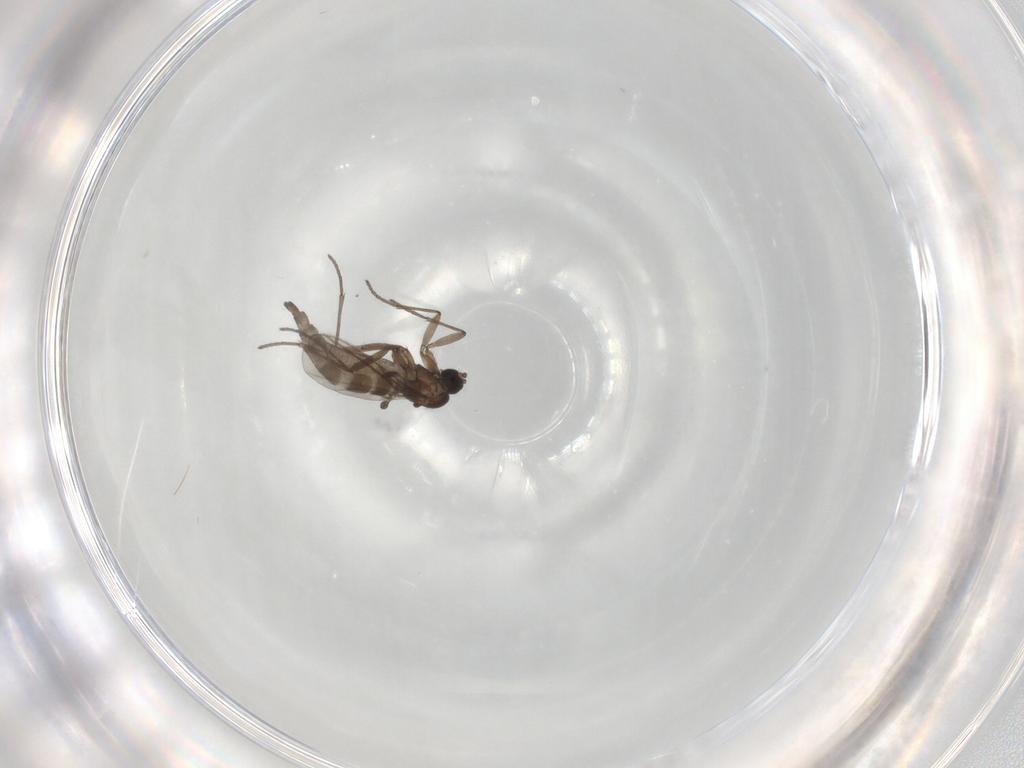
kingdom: Animalia
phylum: Arthropoda
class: Insecta
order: Diptera
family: Sciaridae
